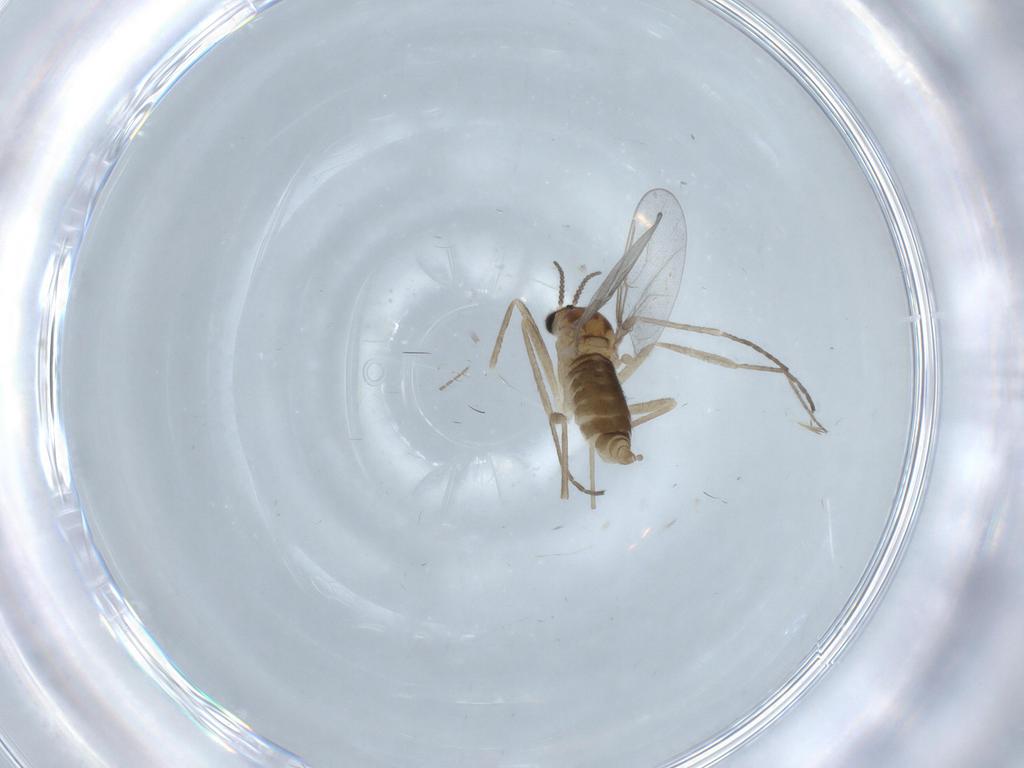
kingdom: Animalia
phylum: Arthropoda
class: Insecta
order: Diptera
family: Cecidomyiidae
